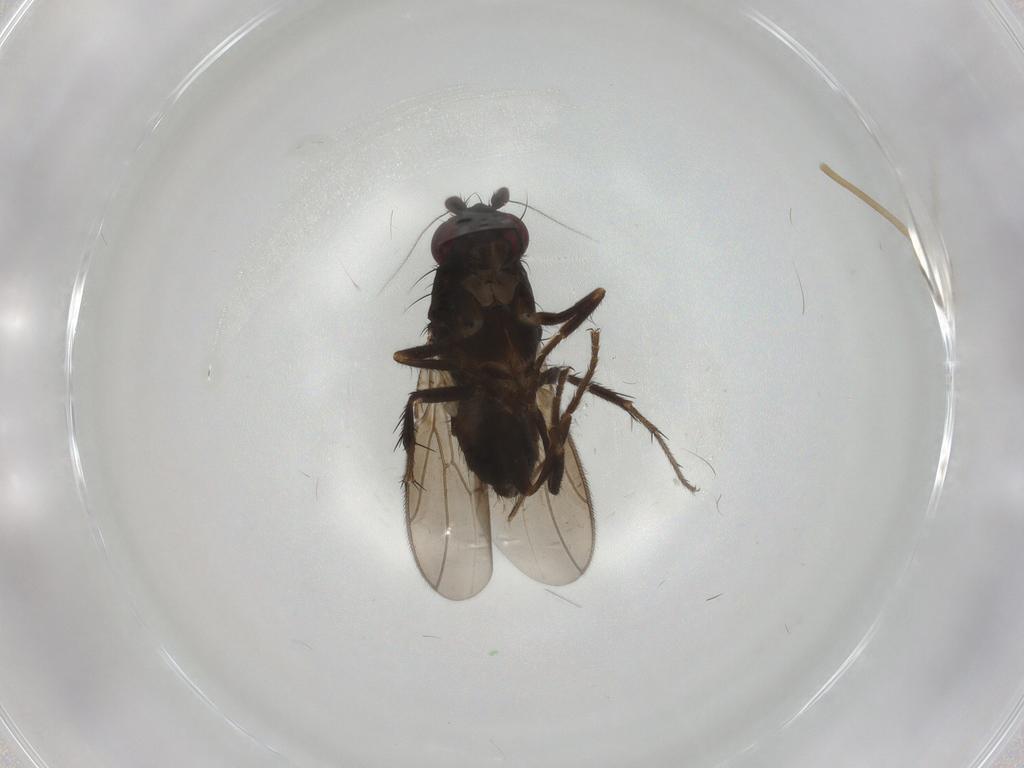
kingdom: Animalia
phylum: Arthropoda
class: Insecta
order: Diptera
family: Sphaeroceridae
